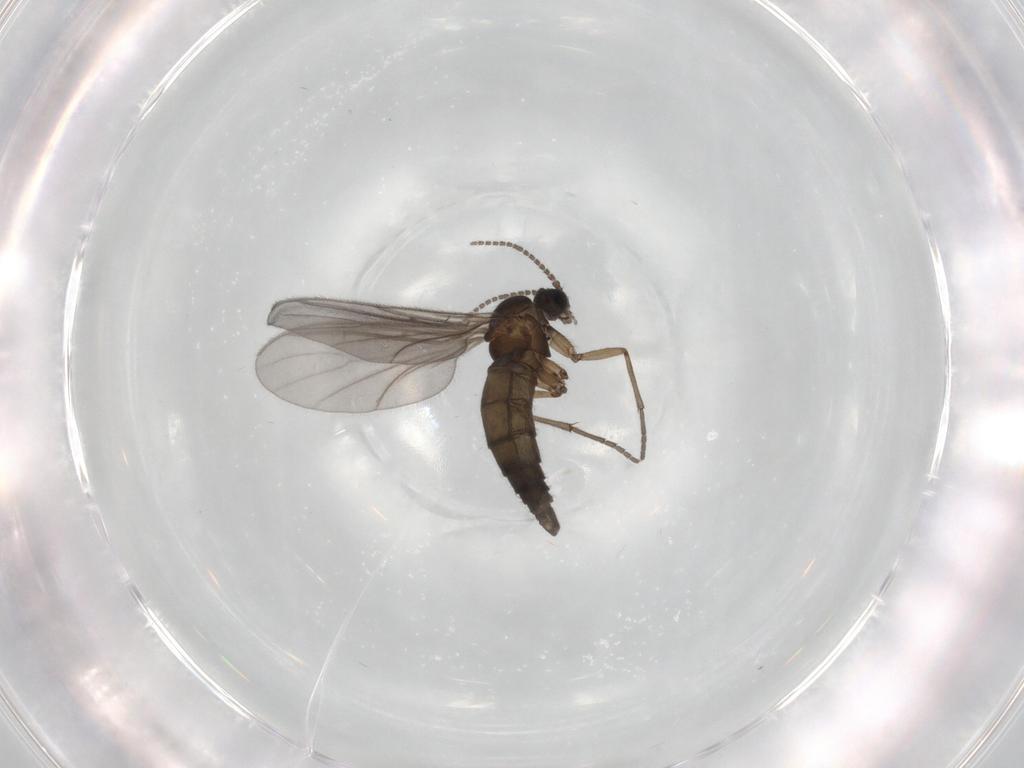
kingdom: Animalia
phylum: Arthropoda
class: Insecta
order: Diptera
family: Sciaridae
